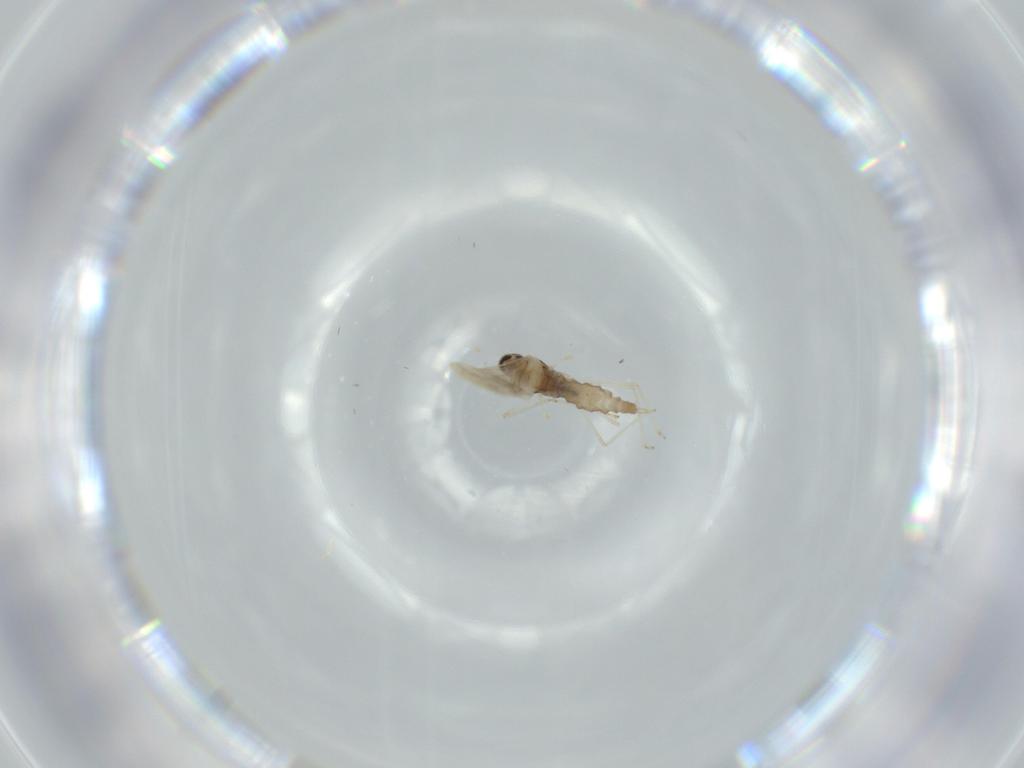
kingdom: Animalia
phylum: Arthropoda
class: Insecta
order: Diptera
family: Cecidomyiidae
